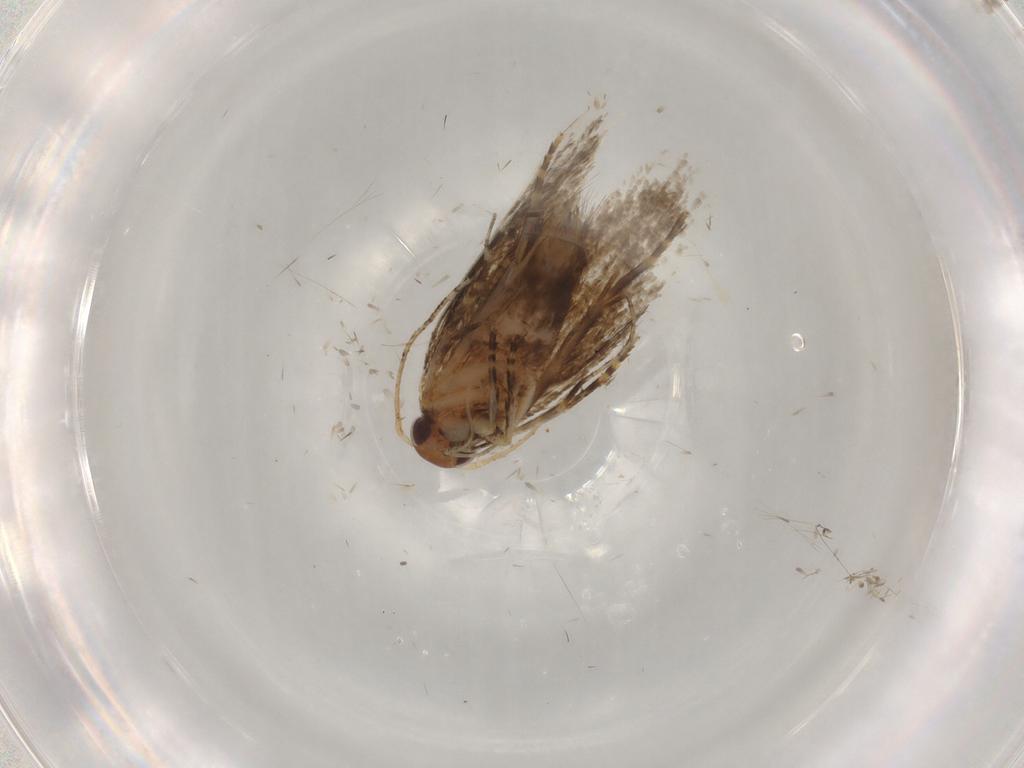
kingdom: Animalia
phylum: Arthropoda
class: Insecta
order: Lepidoptera
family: Oecophoridae
